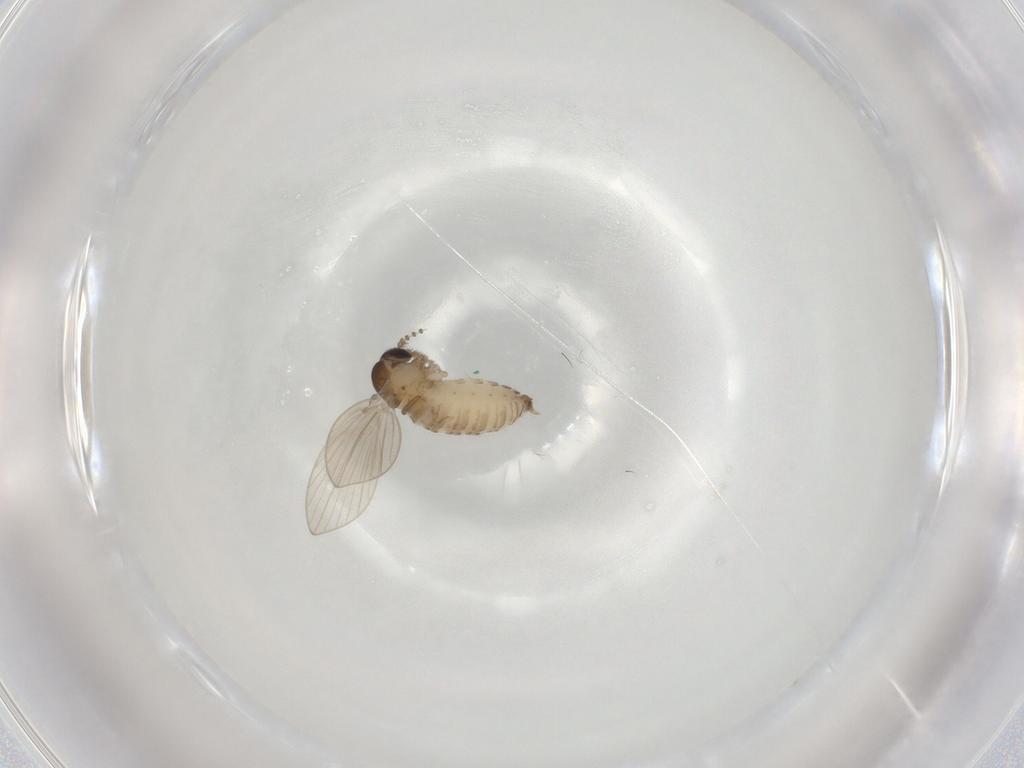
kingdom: Animalia
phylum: Arthropoda
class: Insecta
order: Diptera
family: Psychodidae
